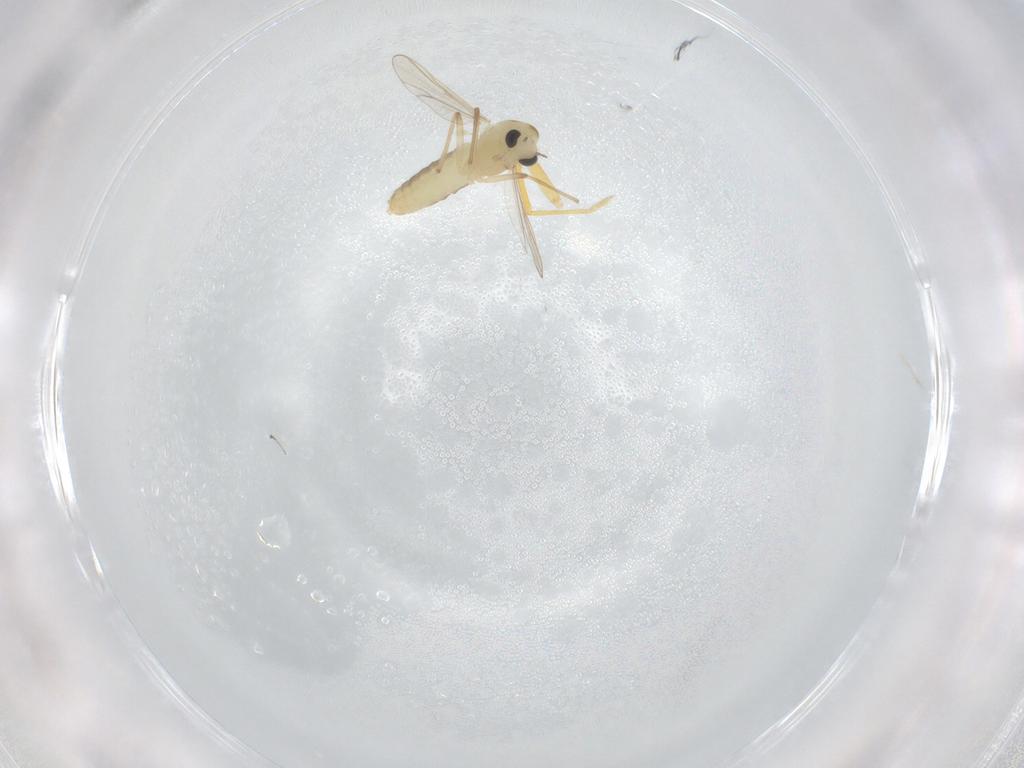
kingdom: Animalia
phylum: Arthropoda
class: Insecta
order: Diptera
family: Chironomidae
